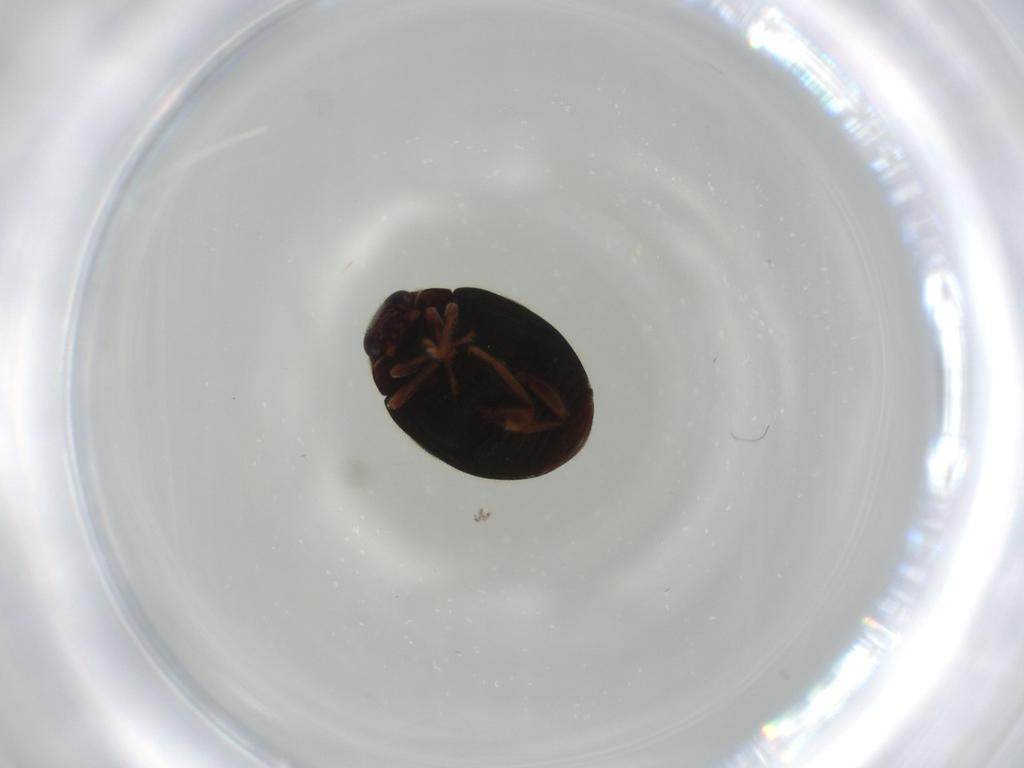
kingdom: Animalia
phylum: Arthropoda
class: Insecta
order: Coleoptera
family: Coccinellidae
